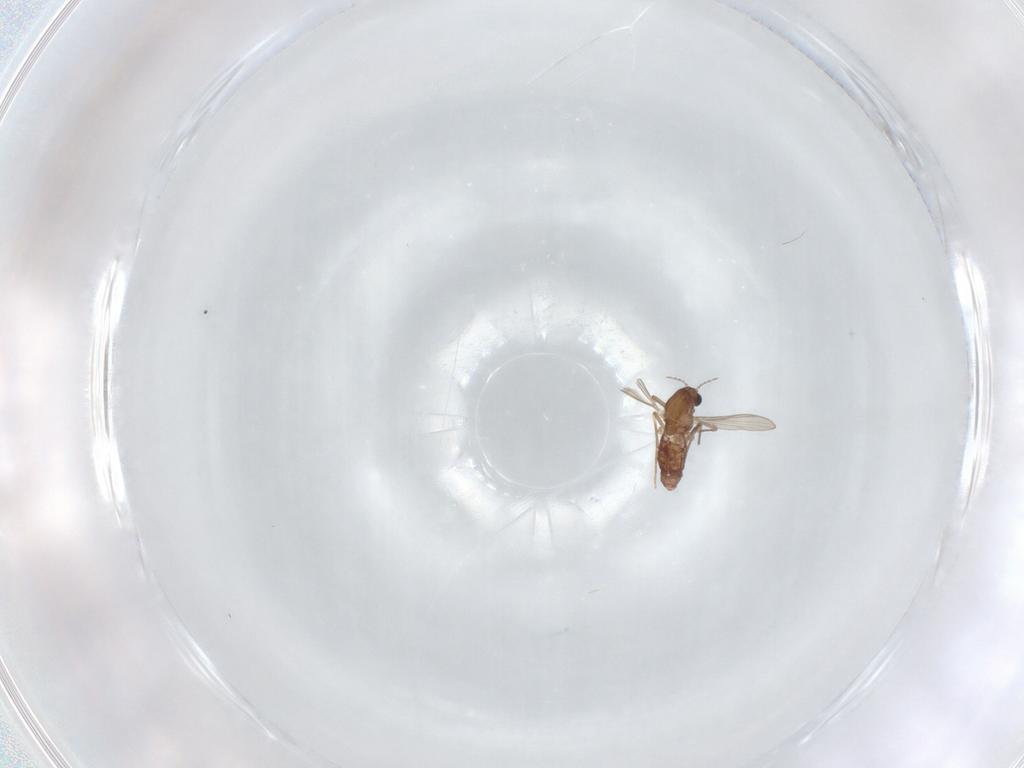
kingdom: Animalia
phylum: Arthropoda
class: Insecta
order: Diptera
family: Chironomidae
